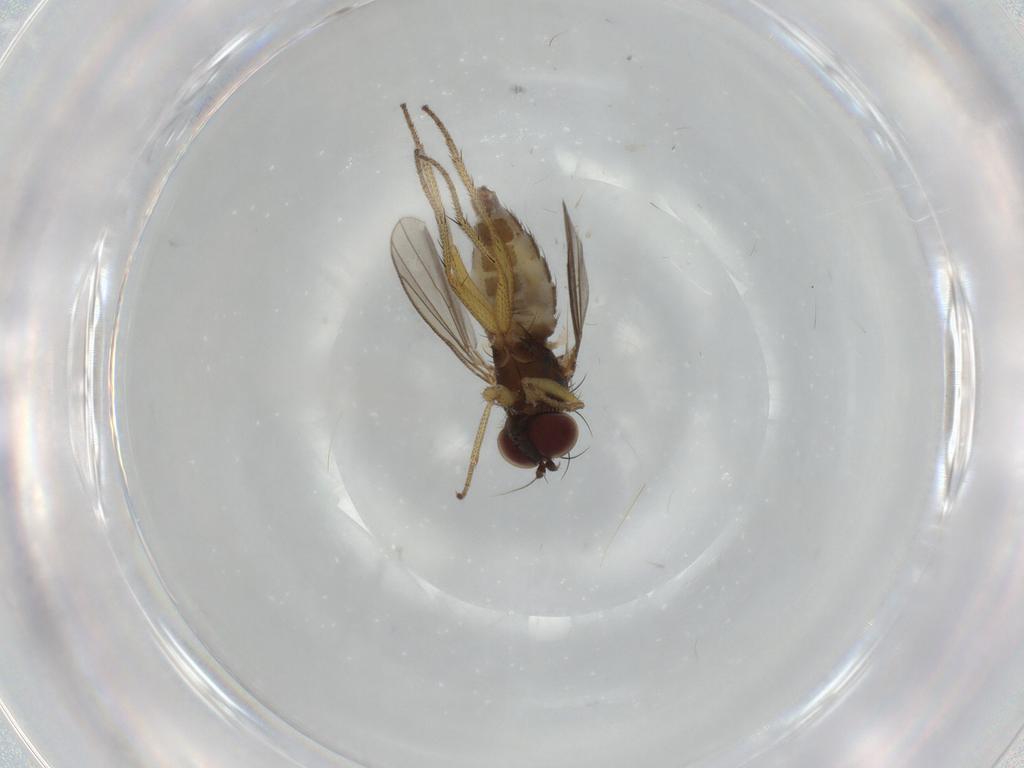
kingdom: Animalia
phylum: Arthropoda
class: Insecta
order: Diptera
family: Dolichopodidae
